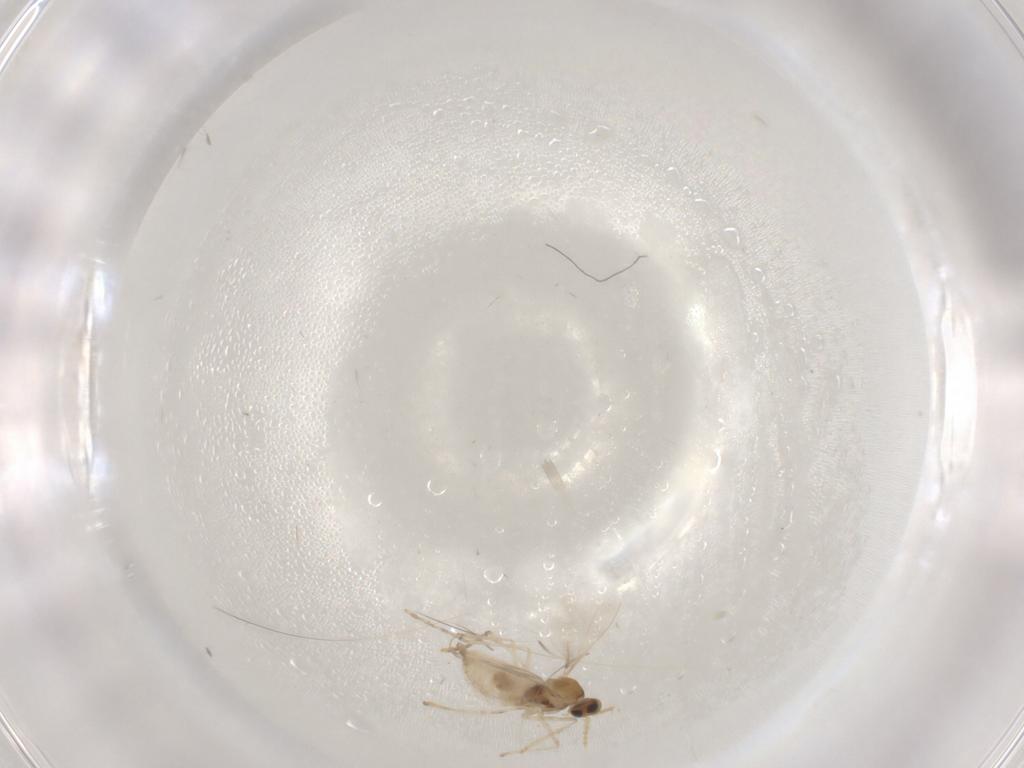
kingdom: Animalia
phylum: Arthropoda
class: Insecta
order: Diptera
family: Cecidomyiidae
